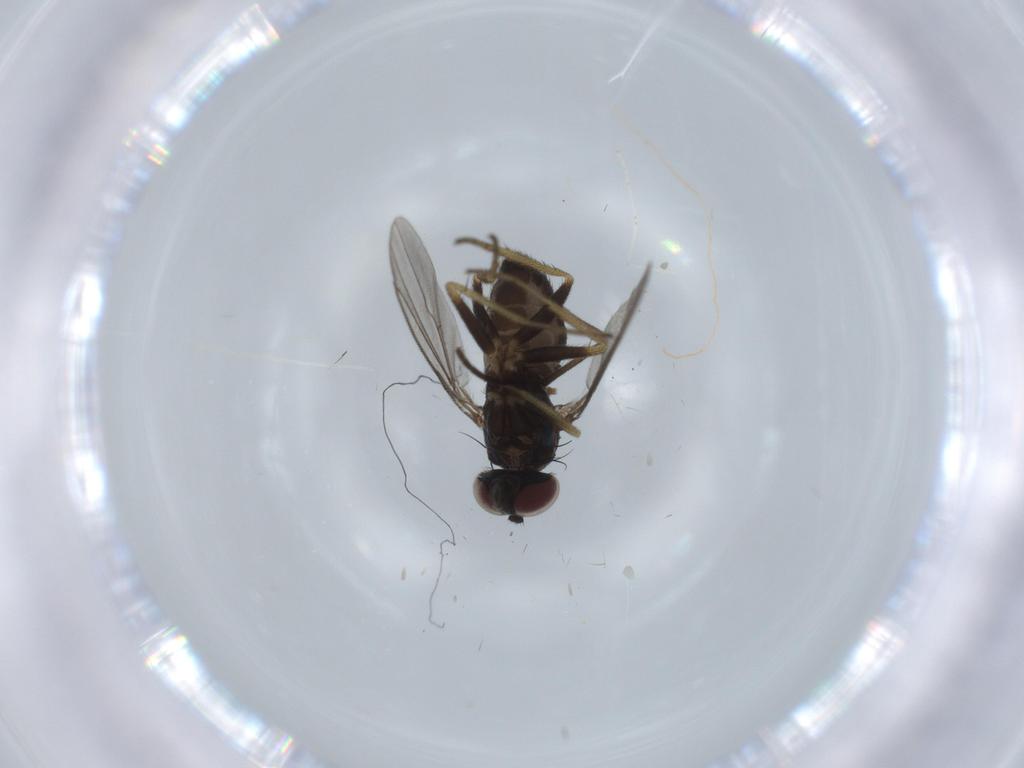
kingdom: Animalia
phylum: Arthropoda
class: Insecta
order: Diptera
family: Dolichopodidae
